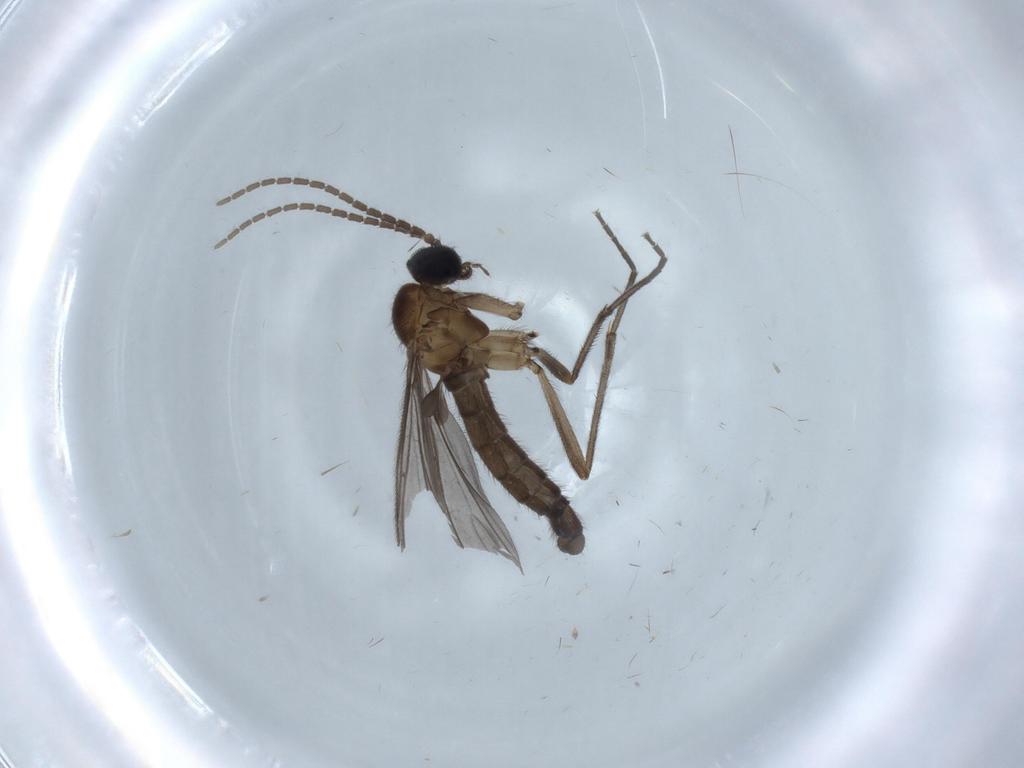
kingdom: Animalia
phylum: Arthropoda
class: Insecta
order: Diptera
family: Sciaridae
